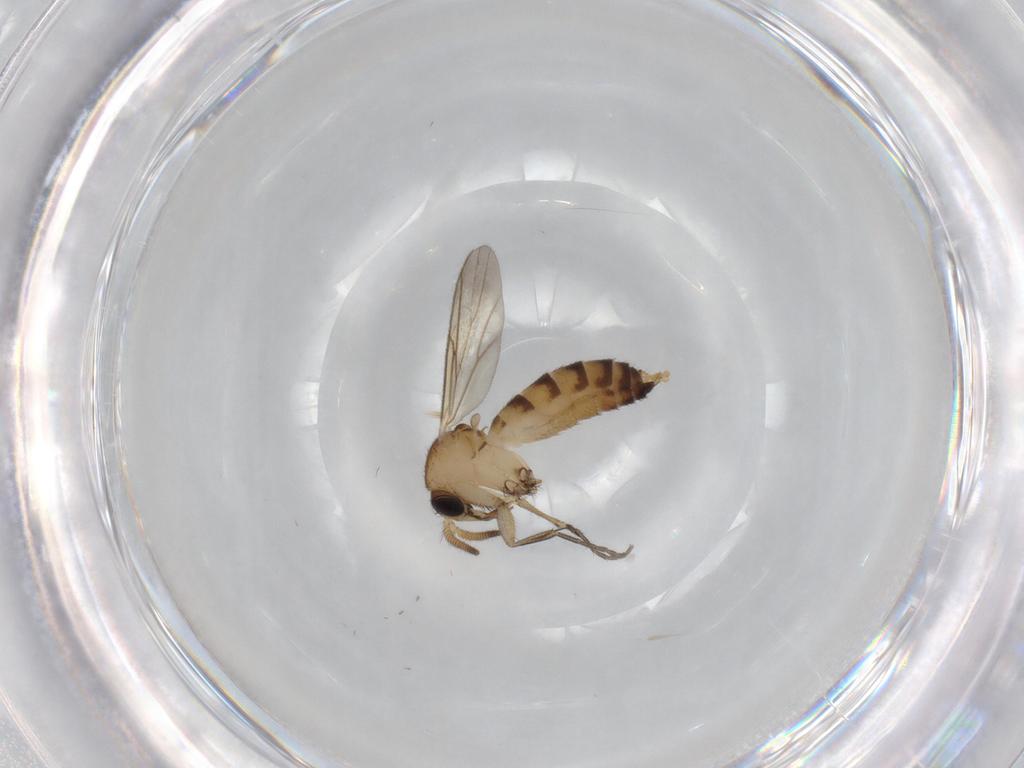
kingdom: Animalia
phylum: Arthropoda
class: Insecta
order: Diptera
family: Mycetophilidae
